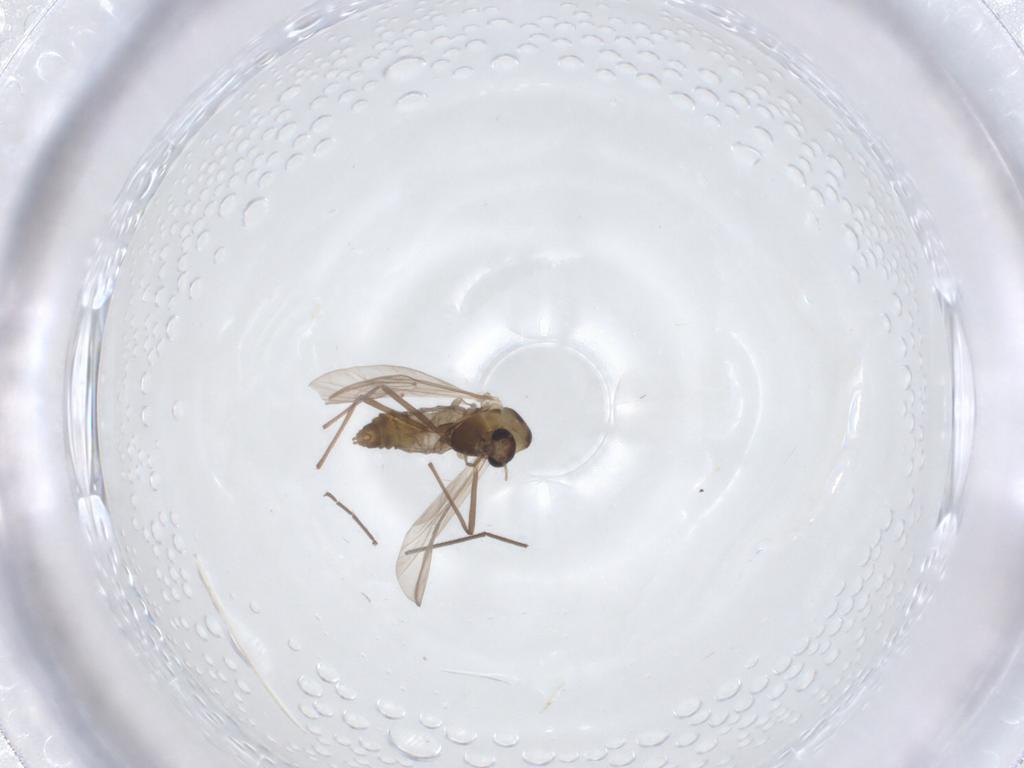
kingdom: Animalia
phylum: Arthropoda
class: Insecta
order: Diptera
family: Chironomidae
